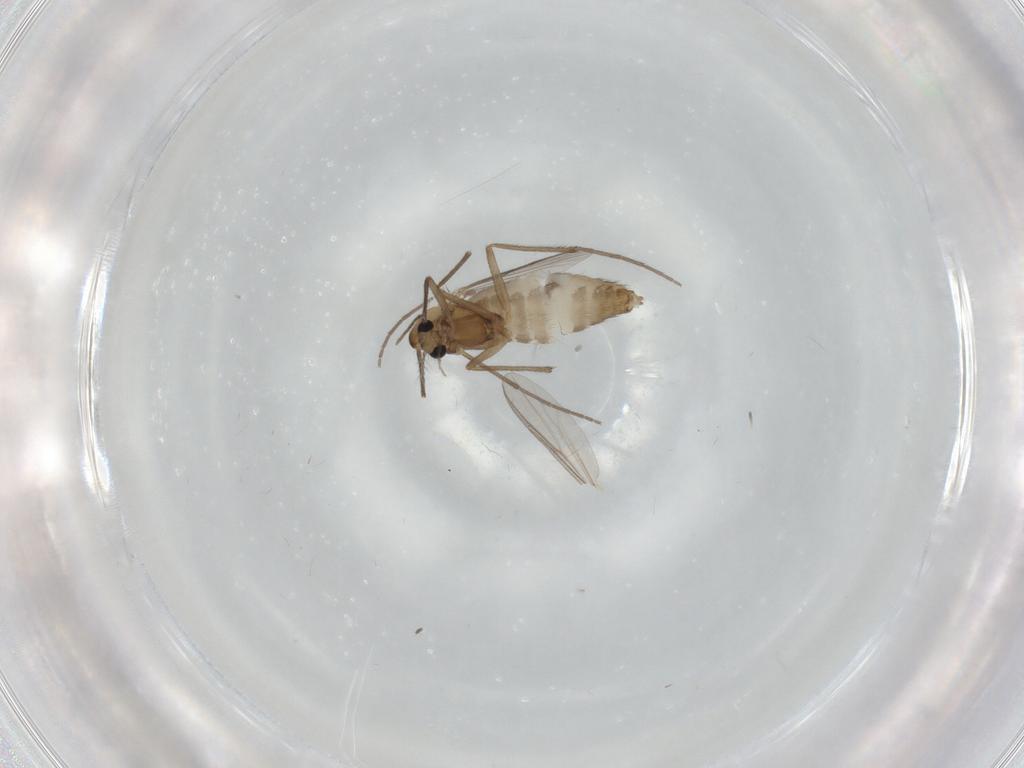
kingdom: Animalia
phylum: Arthropoda
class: Insecta
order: Diptera
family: Chironomidae
